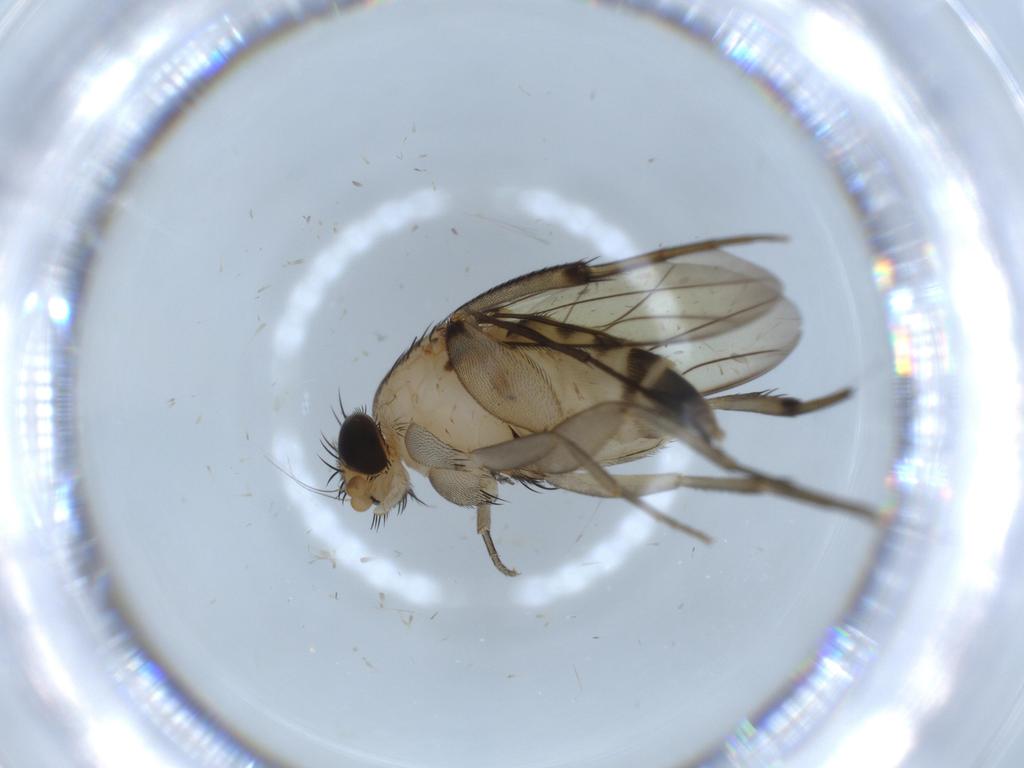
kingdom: Animalia
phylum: Arthropoda
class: Insecta
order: Diptera
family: Phoridae
